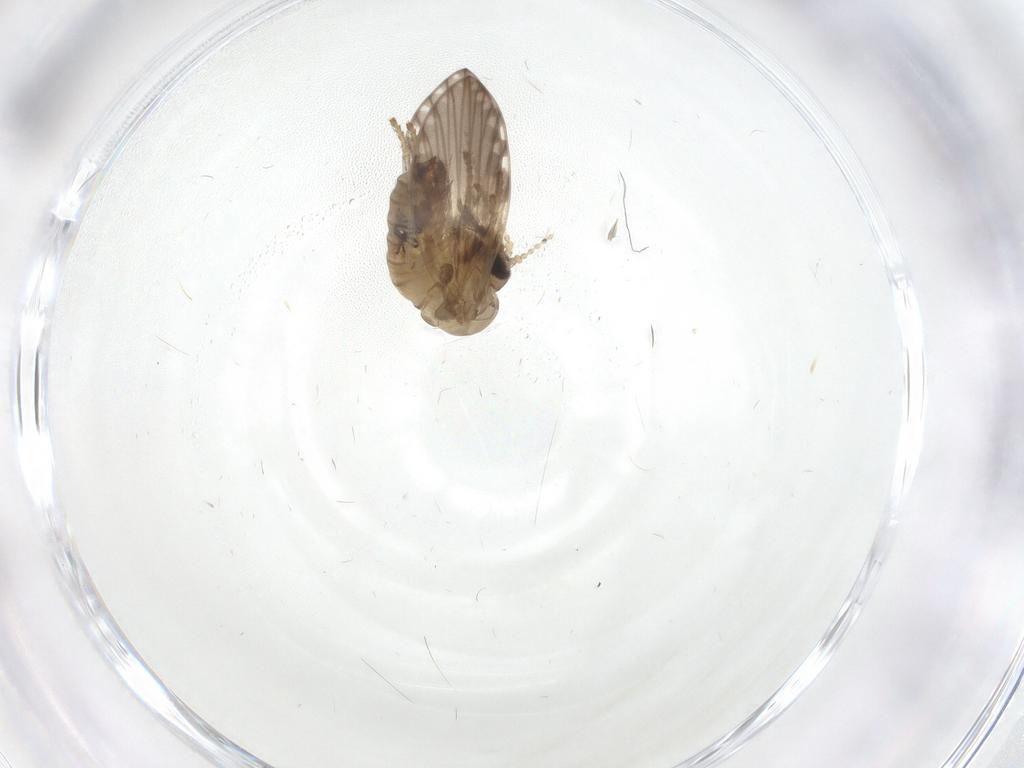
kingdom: Animalia
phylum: Arthropoda
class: Insecta
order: Diptera
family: Psychodidae
